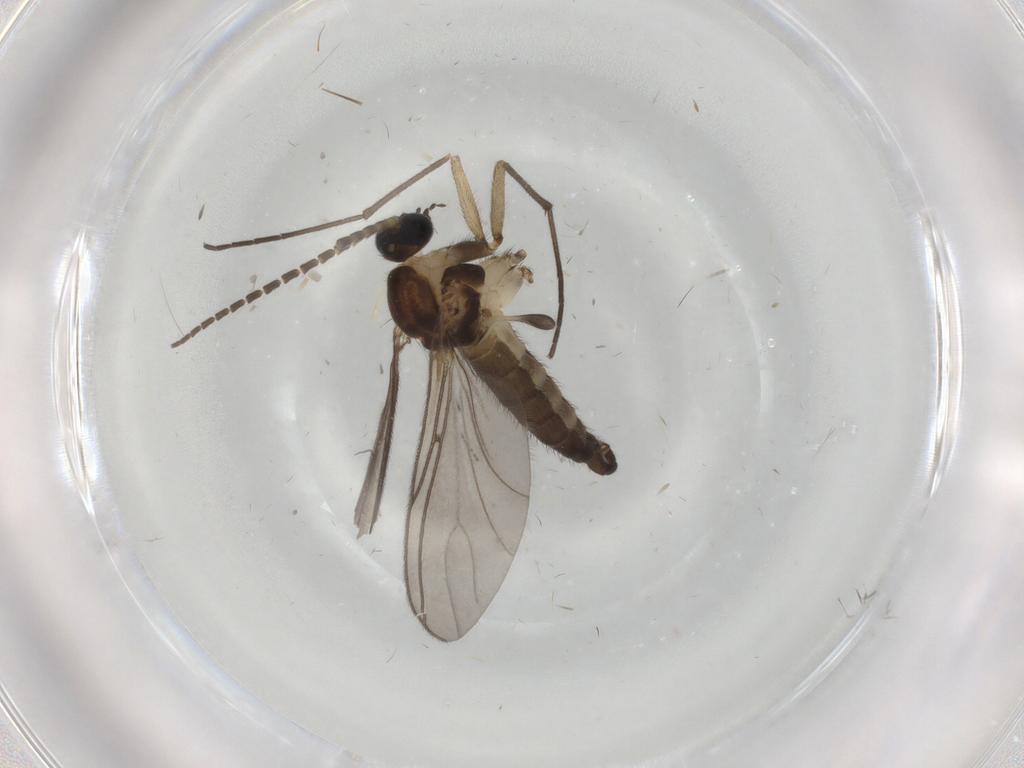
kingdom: Animalia
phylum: Arthropoda
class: Insecta
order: Diptera
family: Sciaridae
